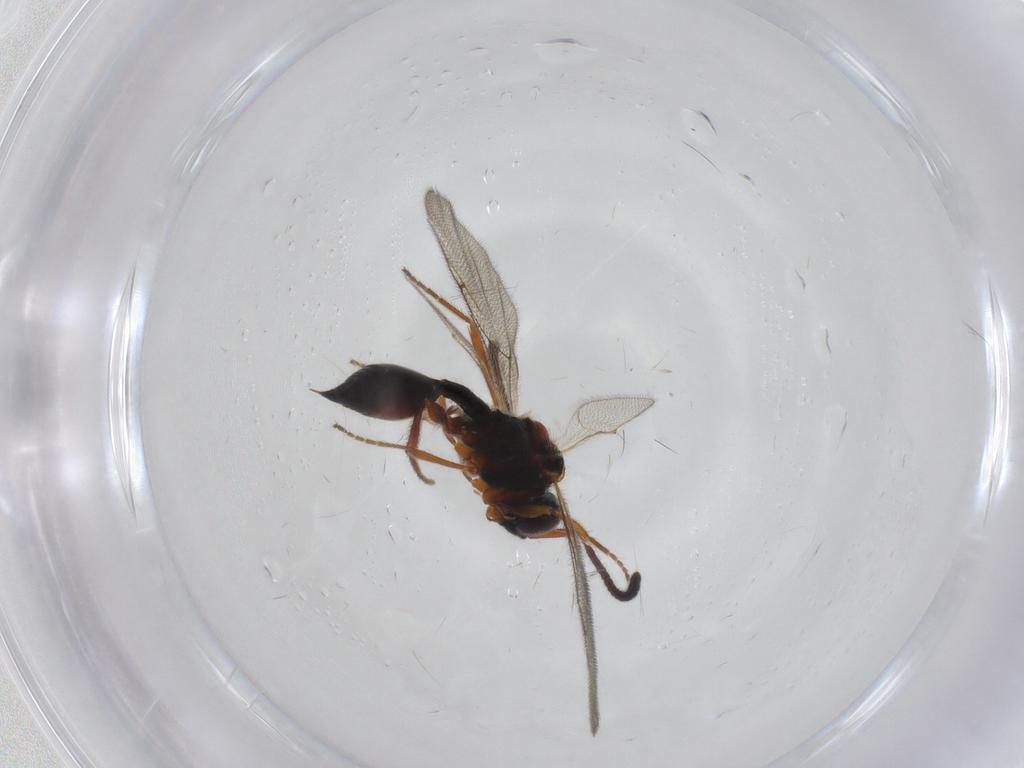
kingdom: Animalia
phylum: Arthropoda
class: Insecta
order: Hymenoptera
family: Diapriidae
